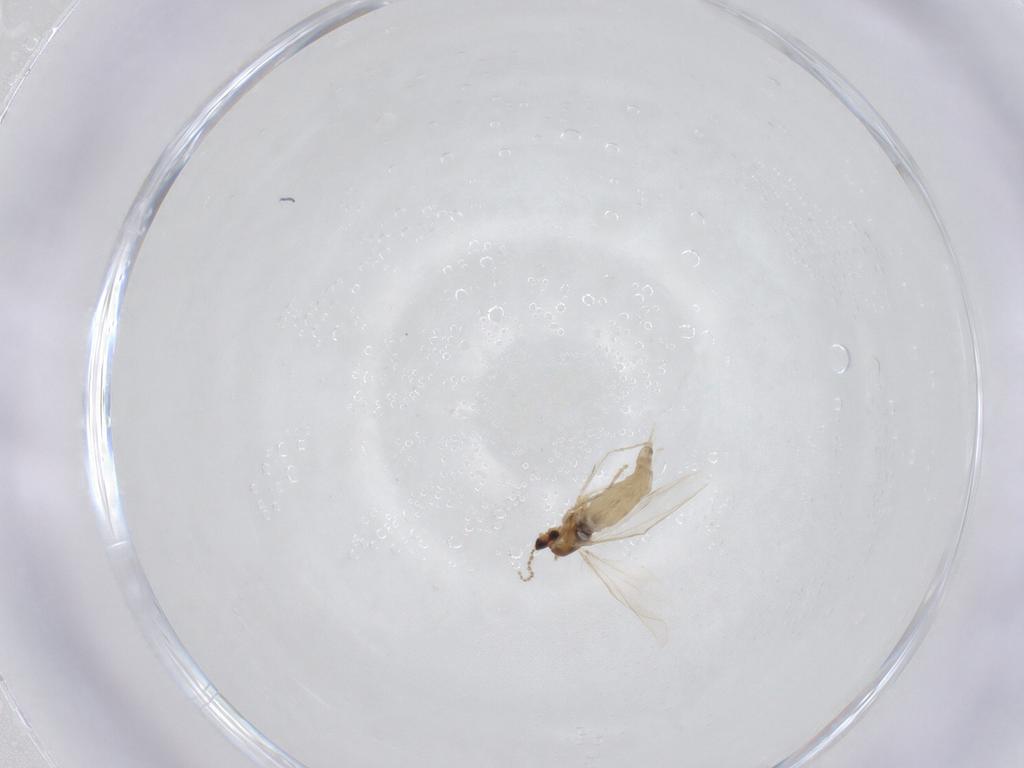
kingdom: Animalia
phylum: Arthropoda
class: Insecta
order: Diptera
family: Cecidomyiidae
